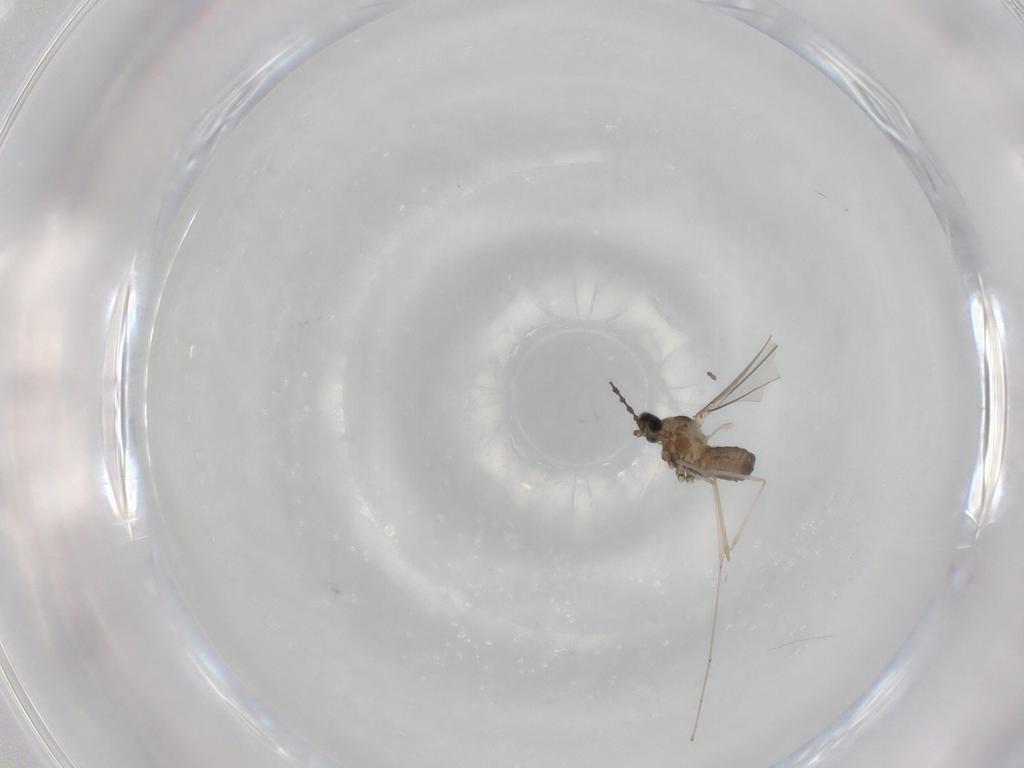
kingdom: Animalia
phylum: Arthropoda
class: Insecta
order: Diptera
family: Cecidomyiidae
